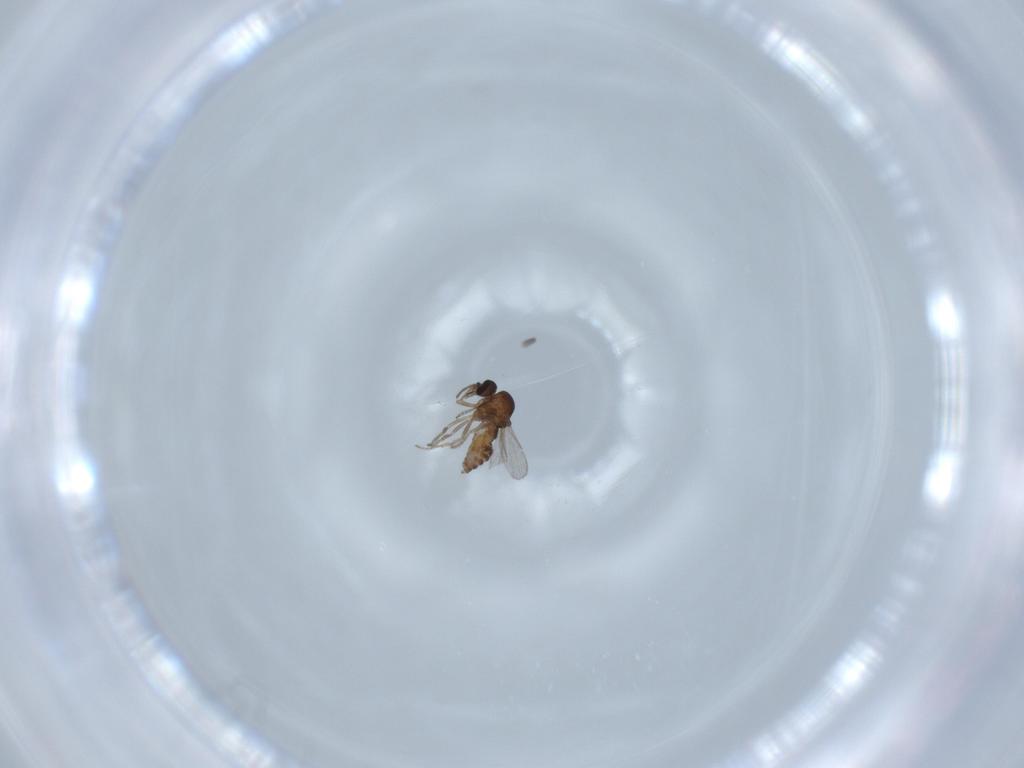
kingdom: Animalia
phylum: Arthropoda
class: Insecta
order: Diptera
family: Ceratopogonidae
